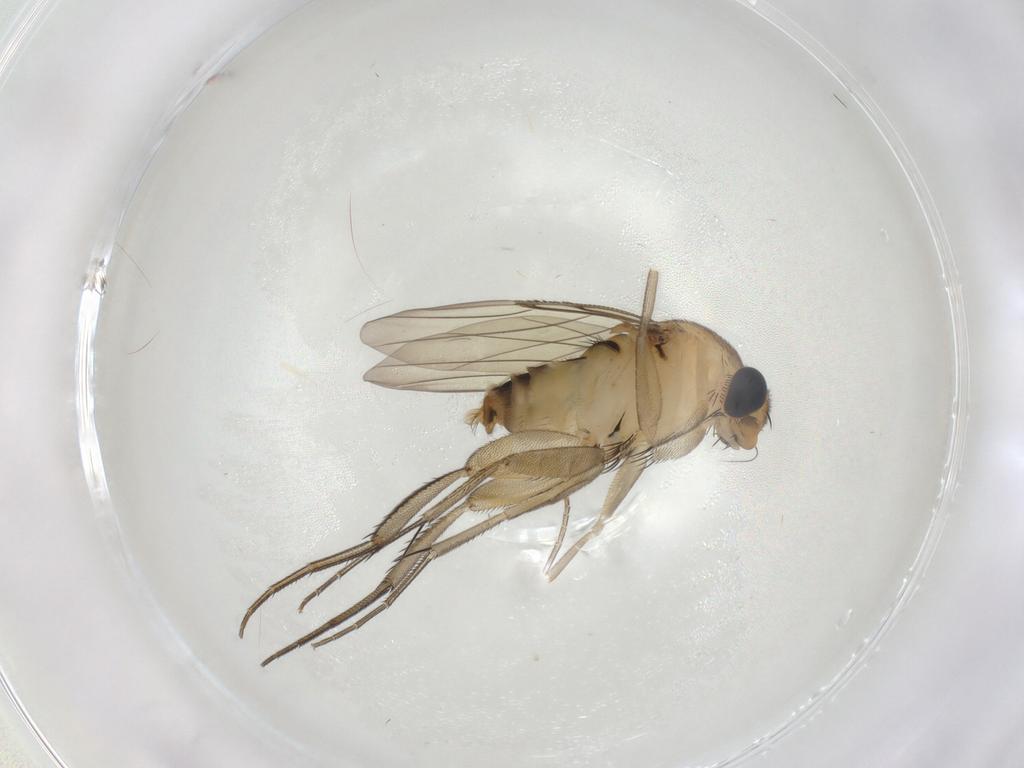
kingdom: Animalia
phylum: Arthropoda
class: Insecta
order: Diptera
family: Phoridae
